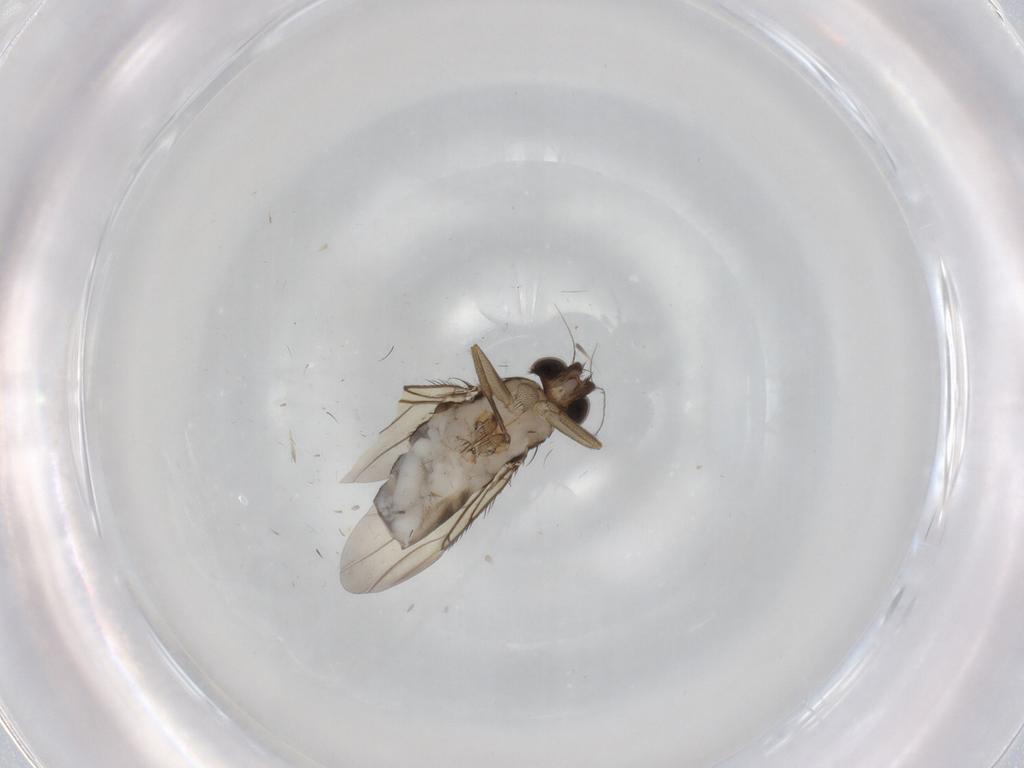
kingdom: Animalia
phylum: Arthropoda
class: Insecta
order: Diptera
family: Phoridae
